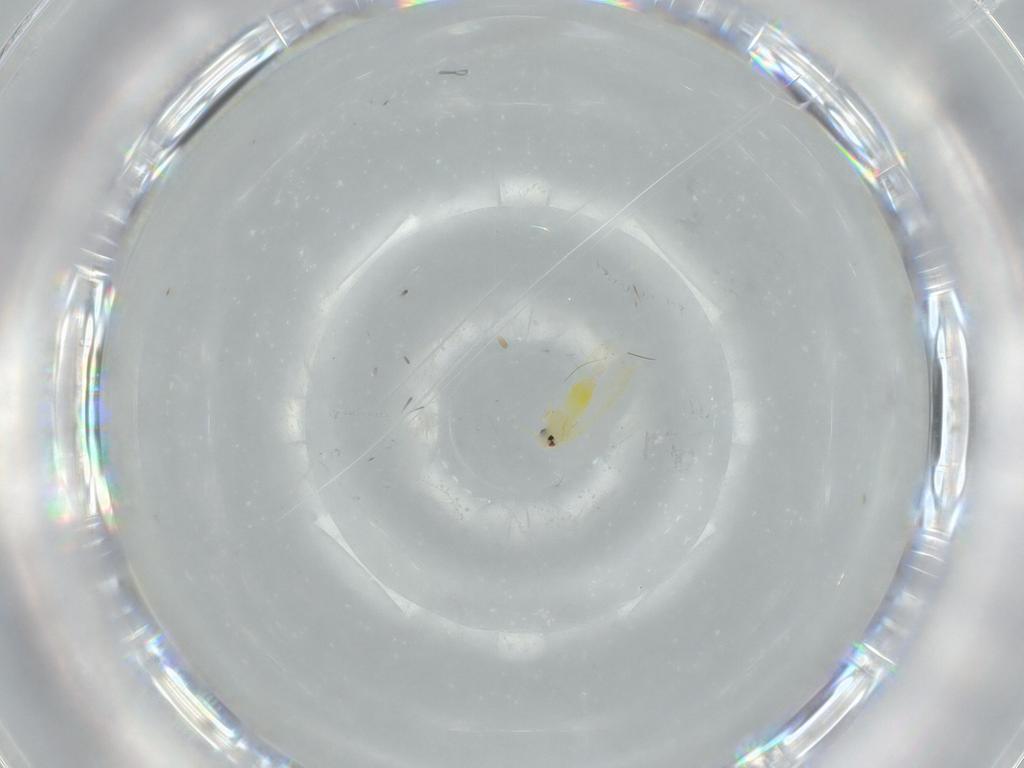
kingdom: Animalia
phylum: Arthropoda
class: Insecta
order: Hemiptera
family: Aleyrodidae
